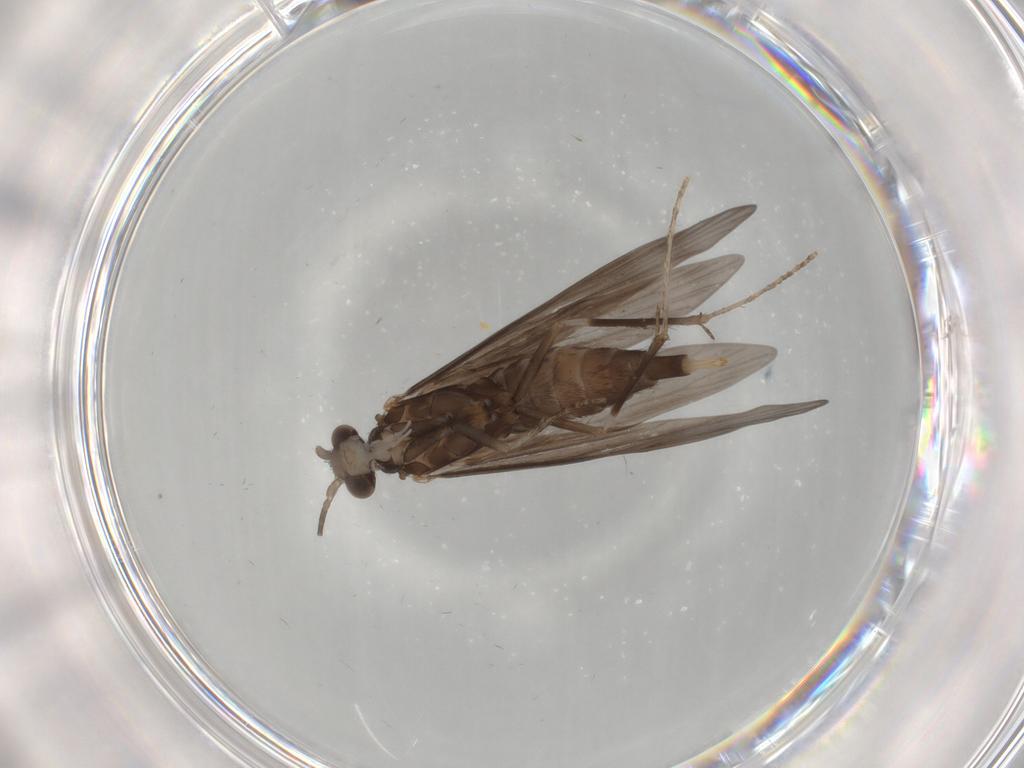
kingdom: Animalia
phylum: Arthropoda
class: Insecta
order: Trichoptera
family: Xiphocentronidae
